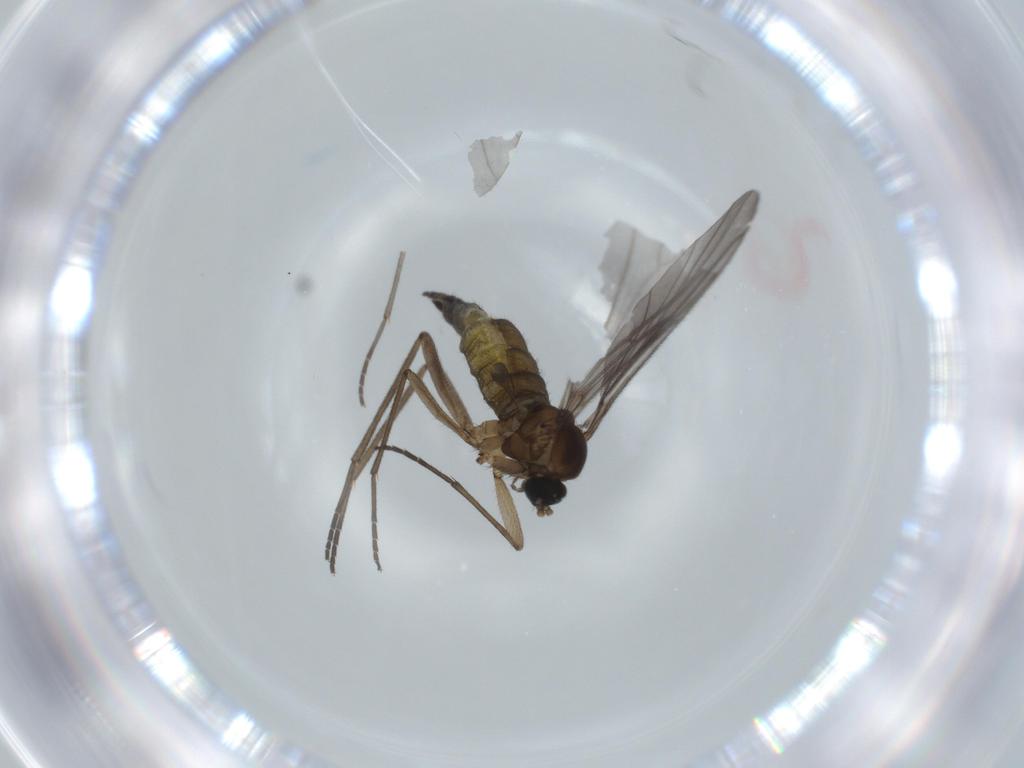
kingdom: Animalia
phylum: Arthropoda
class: Insecta
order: Diptera
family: Sciaridae
